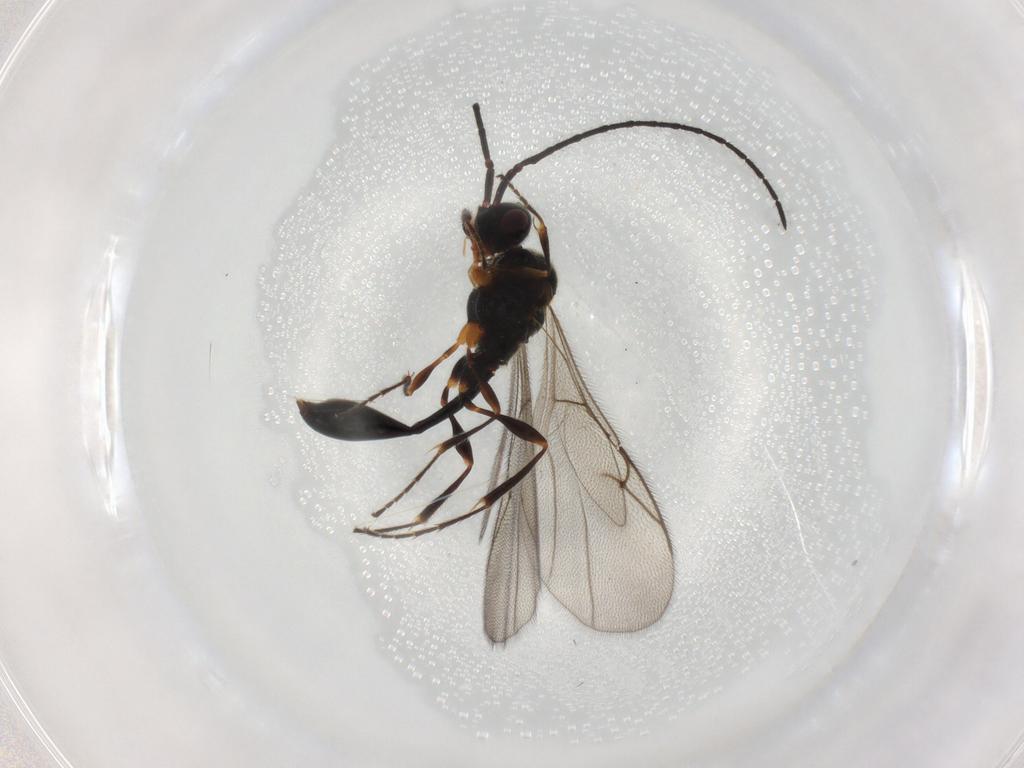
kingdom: Animalia
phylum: Arthropoda
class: Insecta
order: Hymenoptera
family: Diapriidae
